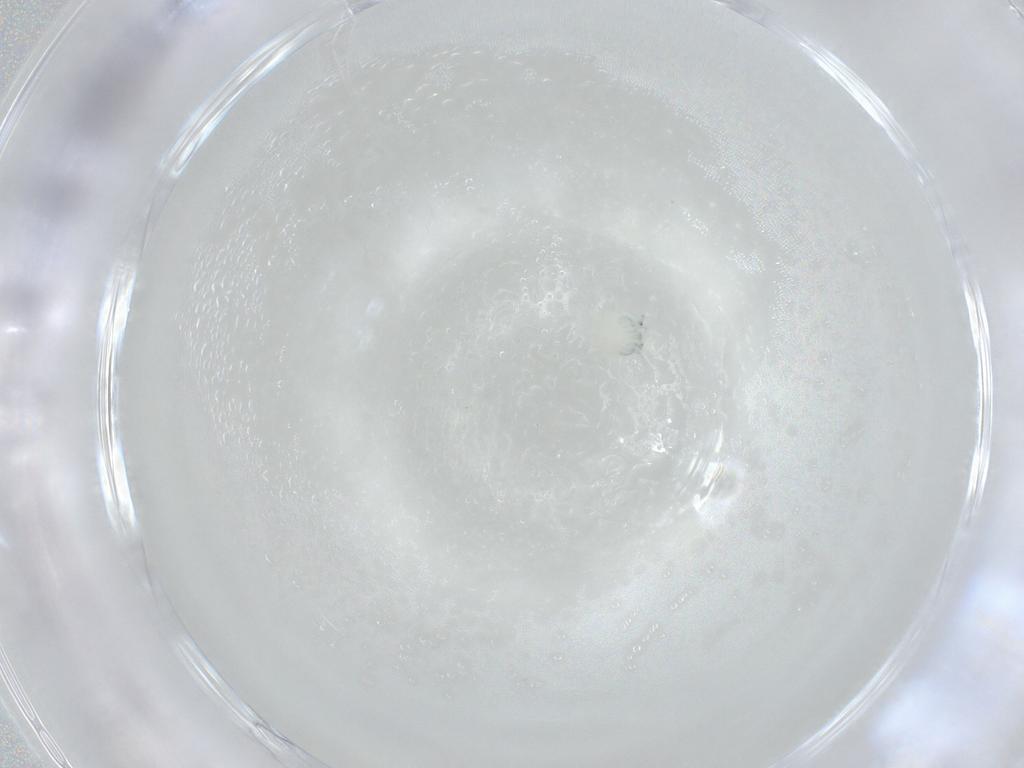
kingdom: Animalia
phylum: Arthropoda
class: Arachnida
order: Trombidiformes
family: Arrenuridae
